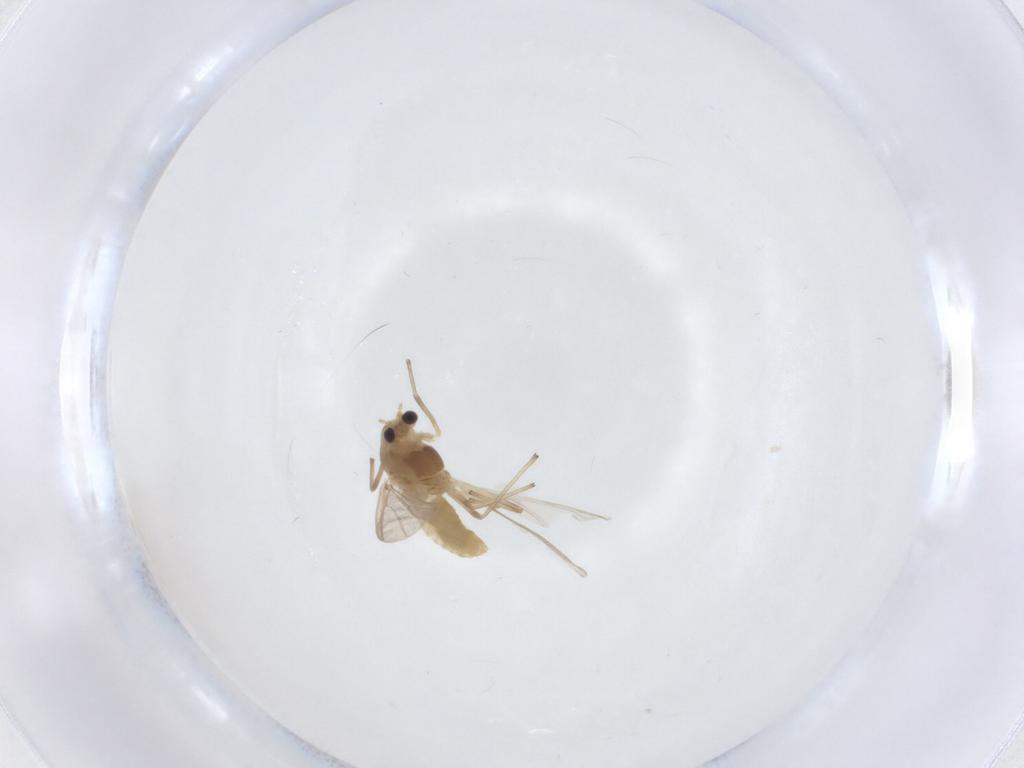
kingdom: Animalia
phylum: Arthropoda
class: Insecta
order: Diptera
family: Chironomidae
